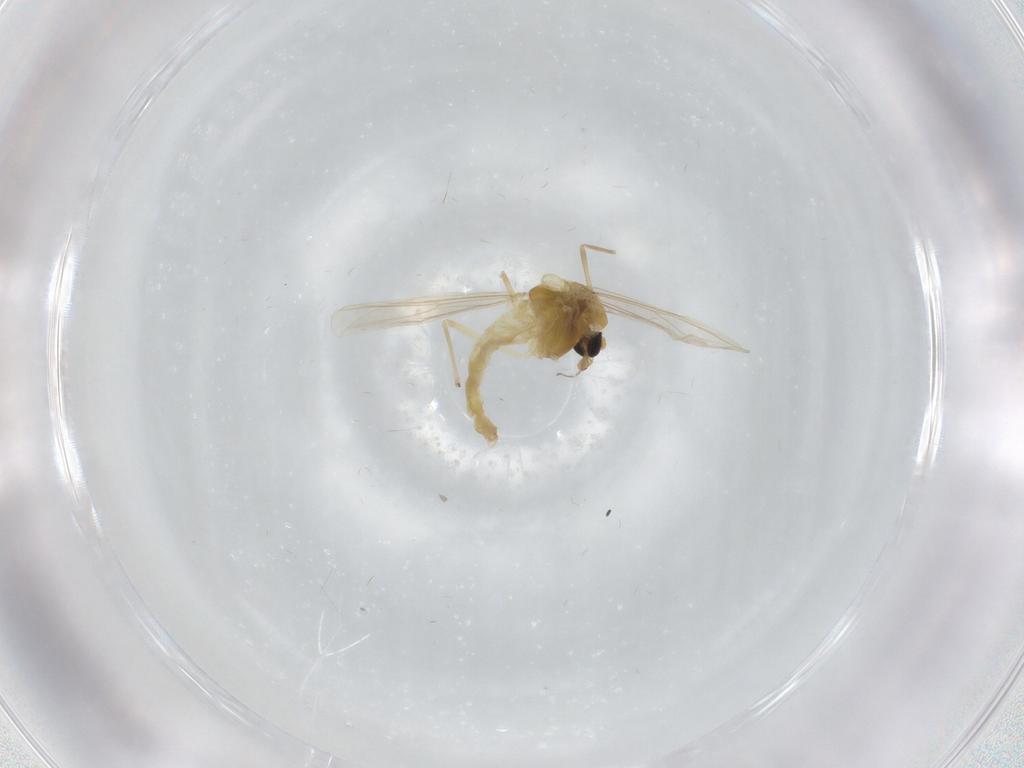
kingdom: Animalia
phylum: Arthropoda
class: Insecta
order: Diptera
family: Chironomidae
